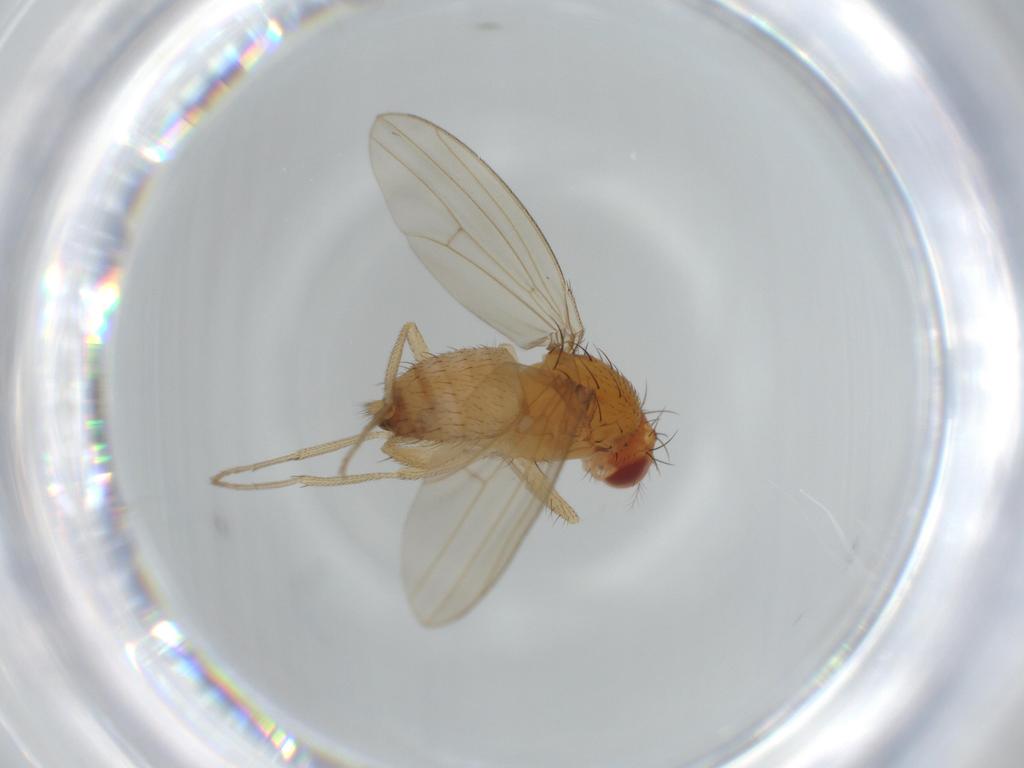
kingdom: Animalia
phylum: Arthropoda
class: Insecta
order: Diptera
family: Drosophilidae
